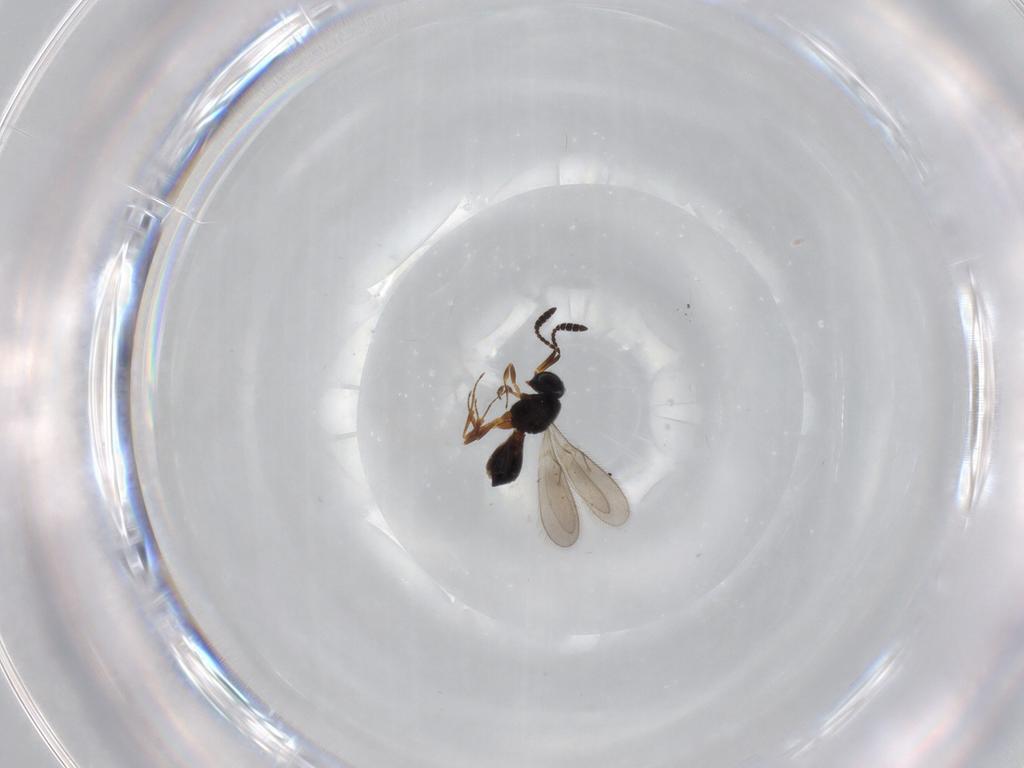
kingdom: Animalia
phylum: Arthropoda
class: Insecta
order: Hymenoptera
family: Scelionidae
